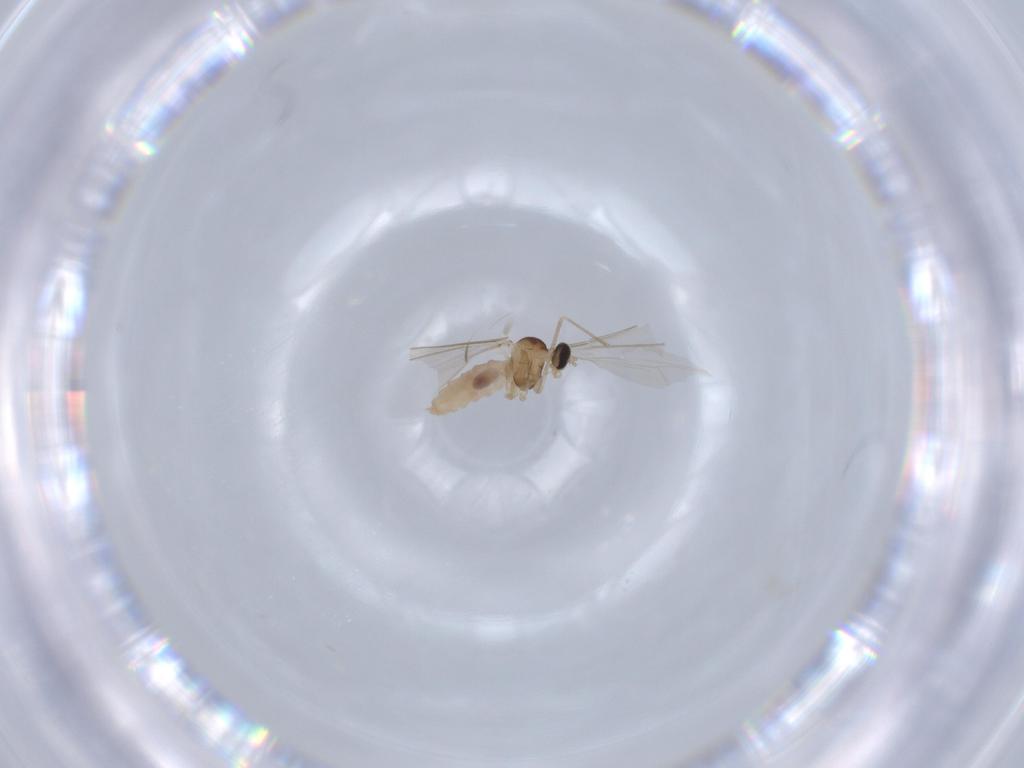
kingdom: Animalia
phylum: Arthropoda
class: Insecta
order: Diptera
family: Cecidomyiidae
